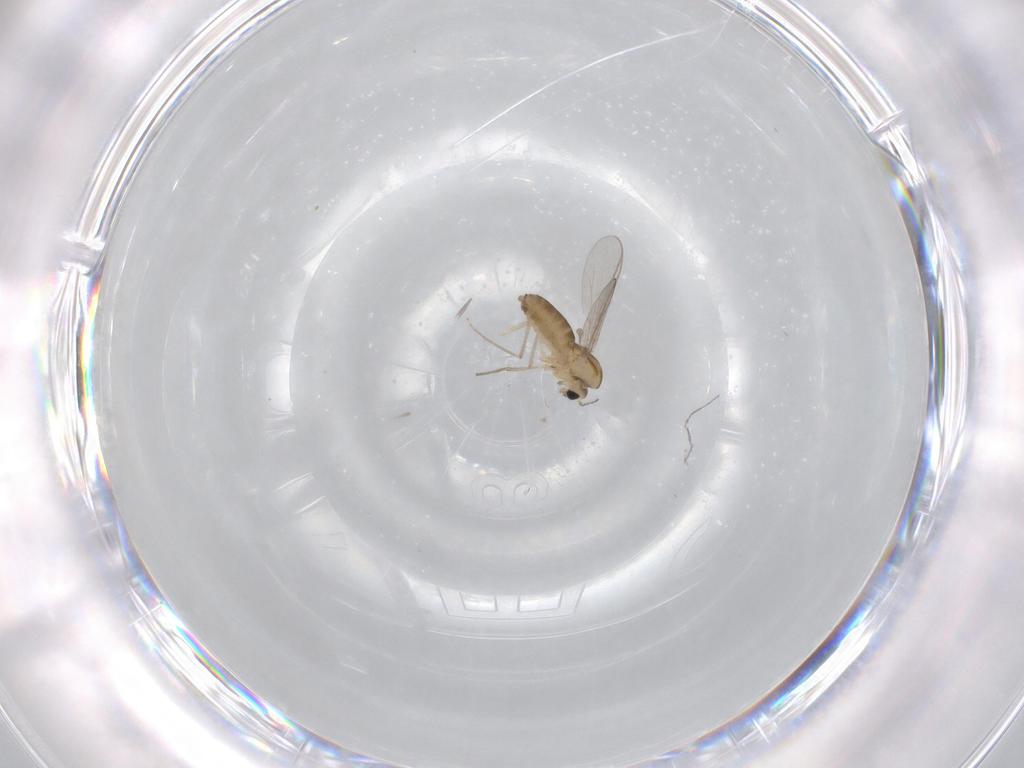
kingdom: Animalia
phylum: Arthropoda
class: Insecta
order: Diptera
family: Chironomidae
